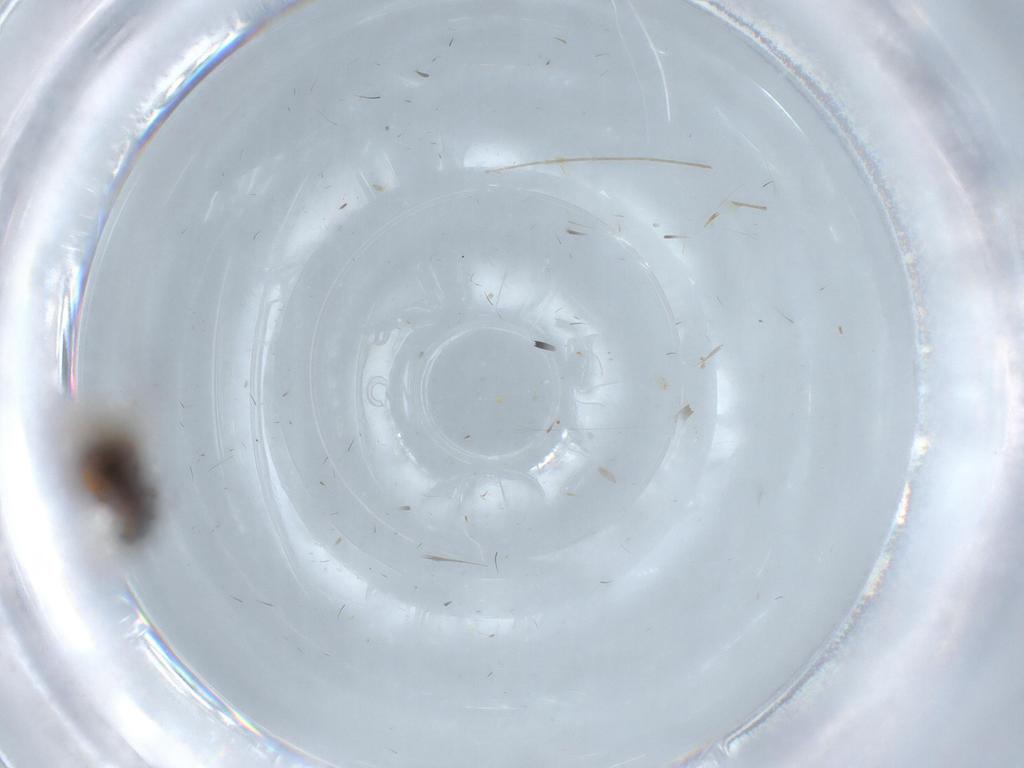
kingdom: Animalia
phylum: Arthropoda
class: Insecta
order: Hymenoptera
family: Figitidae
